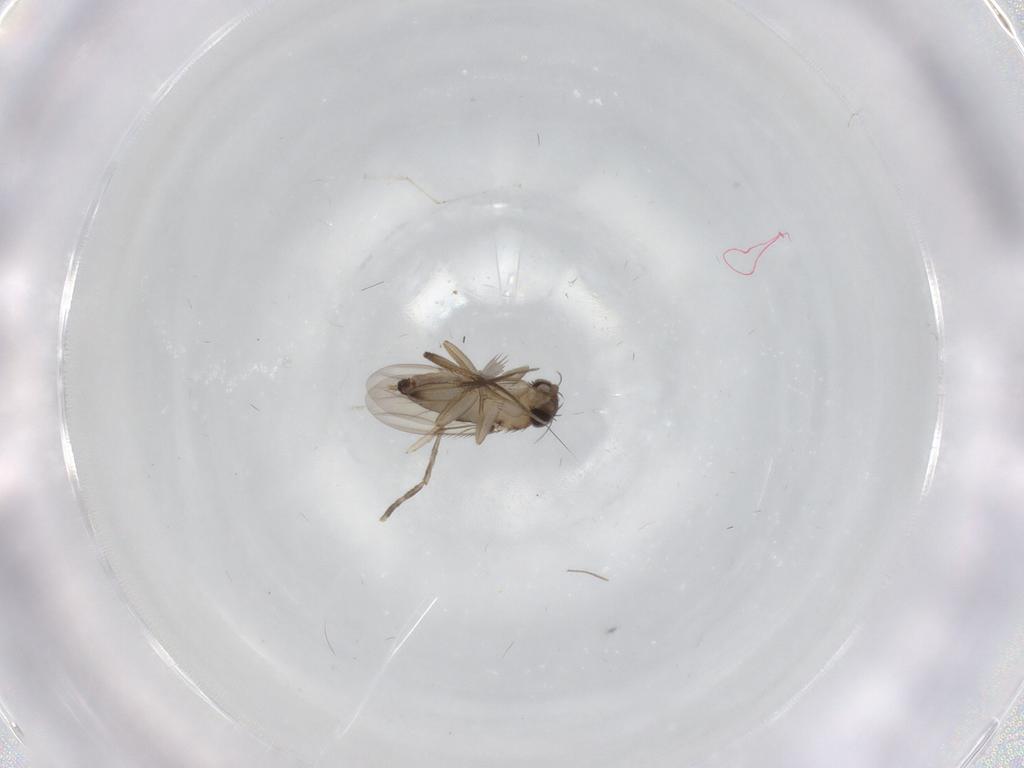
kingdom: Animalia
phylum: Arthropoda
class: Insecta
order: Diptera
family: Phoridae
